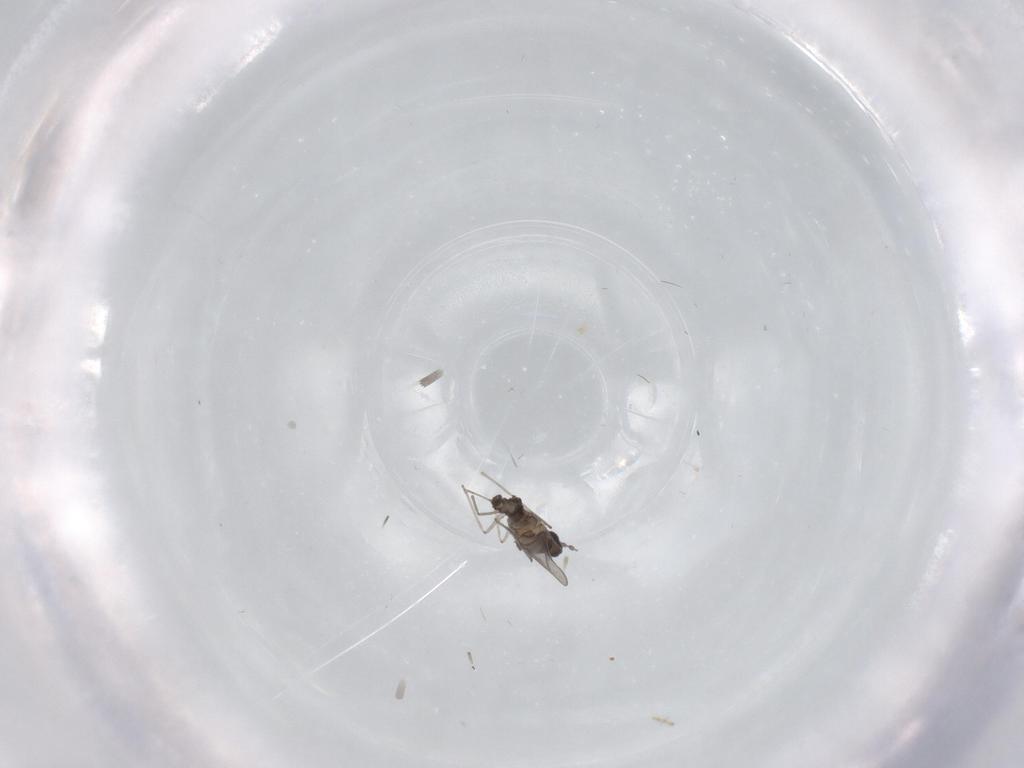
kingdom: Animalia
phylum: Arthropoda
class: Insecta
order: Diptera
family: Cecidomyiidae
